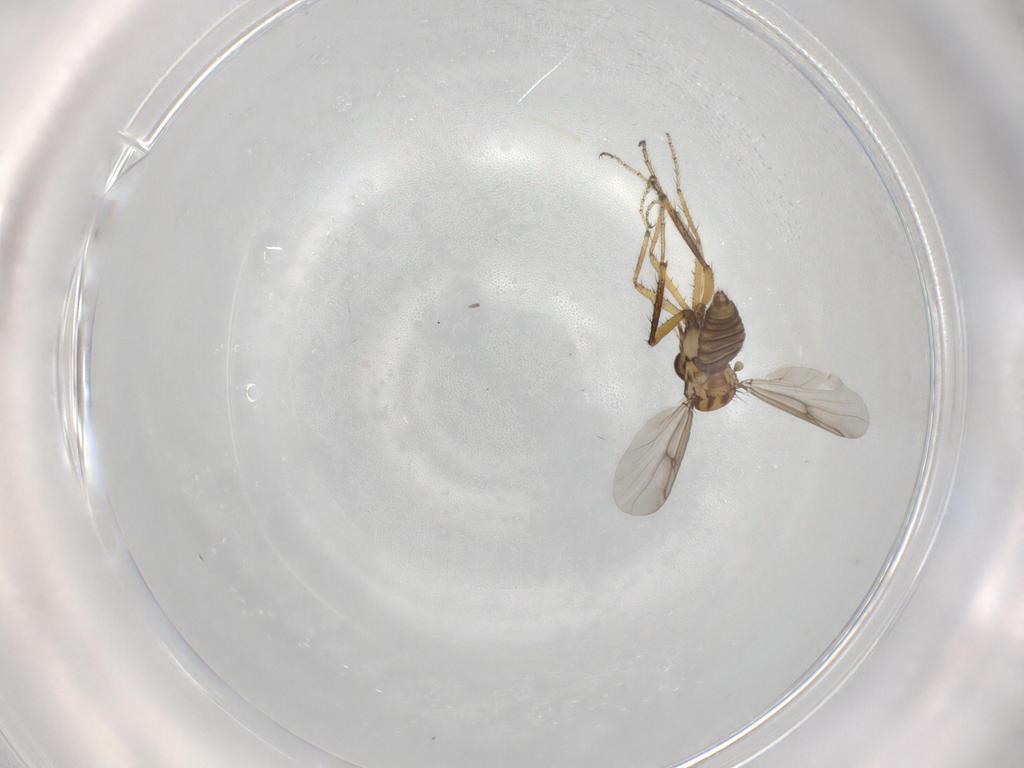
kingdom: Animalia
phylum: Arthropoda
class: Insecta
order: Diptera
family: Ceratopogonidae
